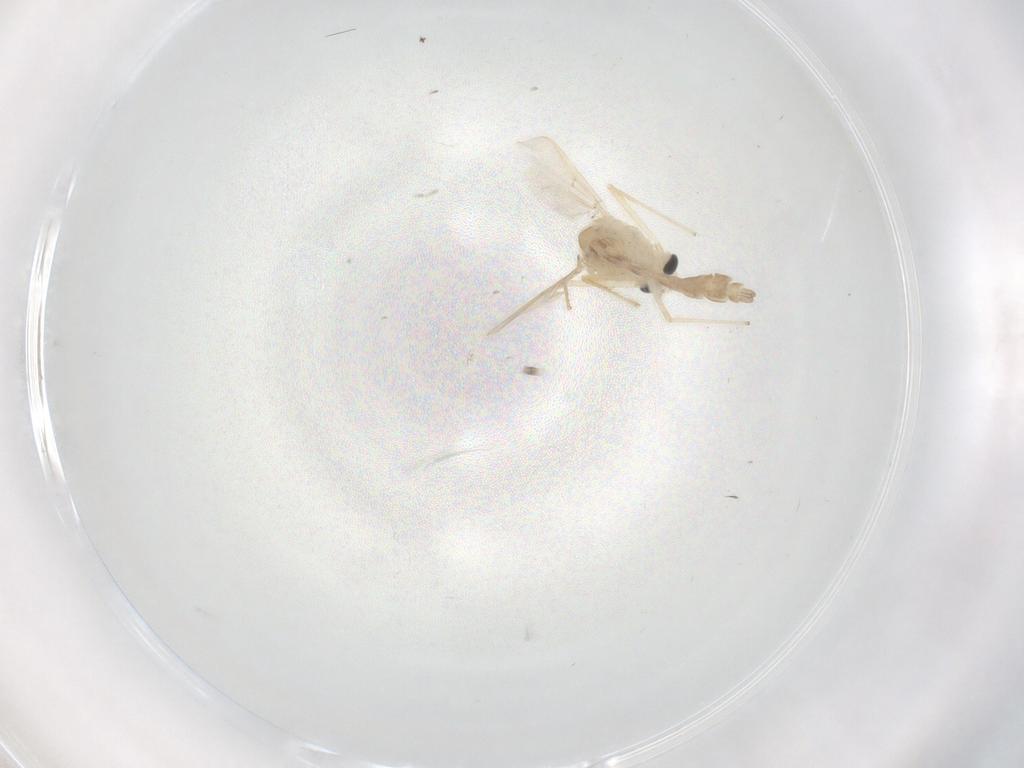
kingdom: Animalia
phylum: Arthropoda
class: Insecta
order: Diptera
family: Chironomidae
